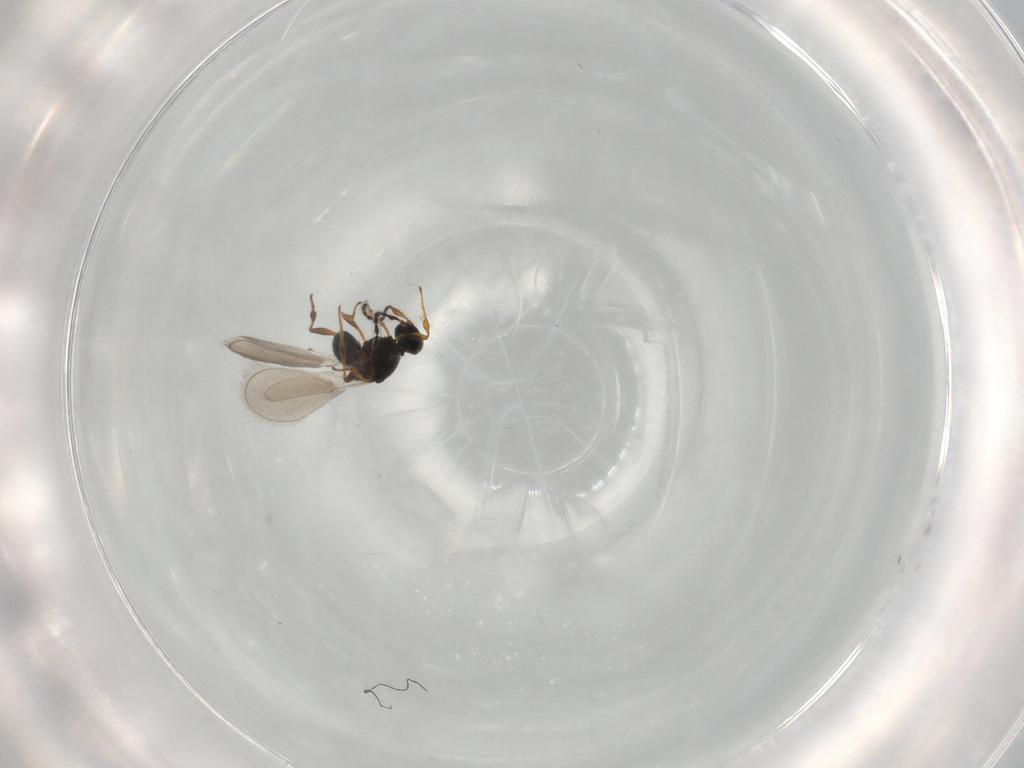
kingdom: Animalia
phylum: Arthropoda
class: Insecta
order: Hymenoptera
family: Platygastridae
